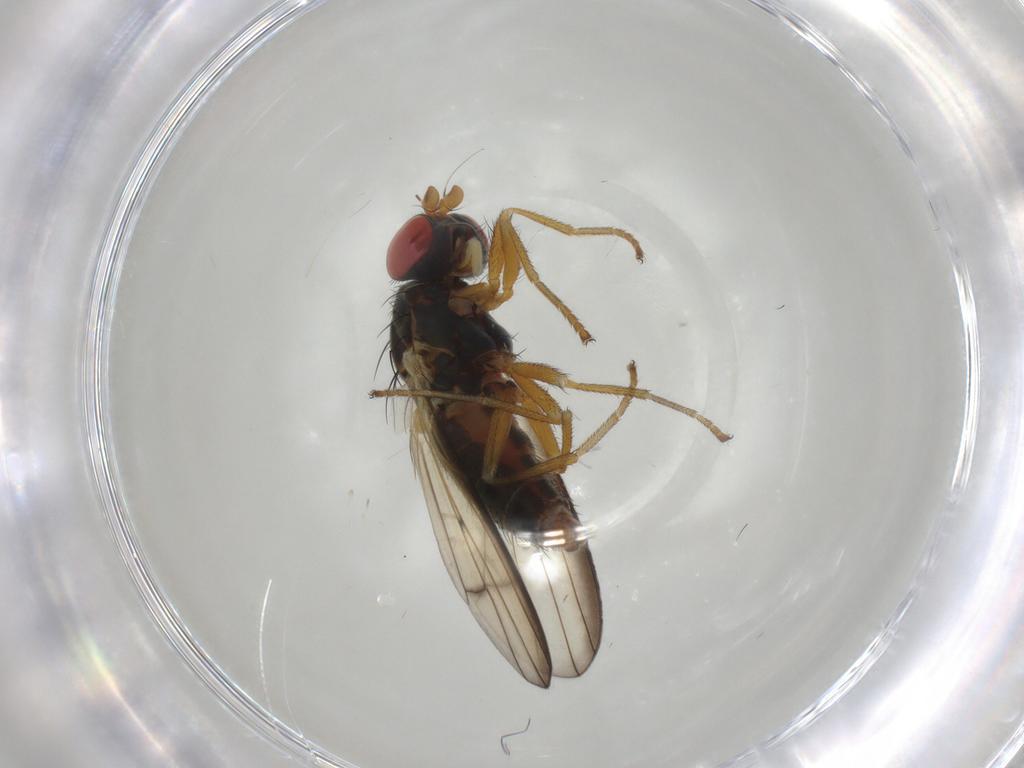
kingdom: Animalia
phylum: Arthropoda
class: Insecta
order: Diptera
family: Chamaemyiidae
